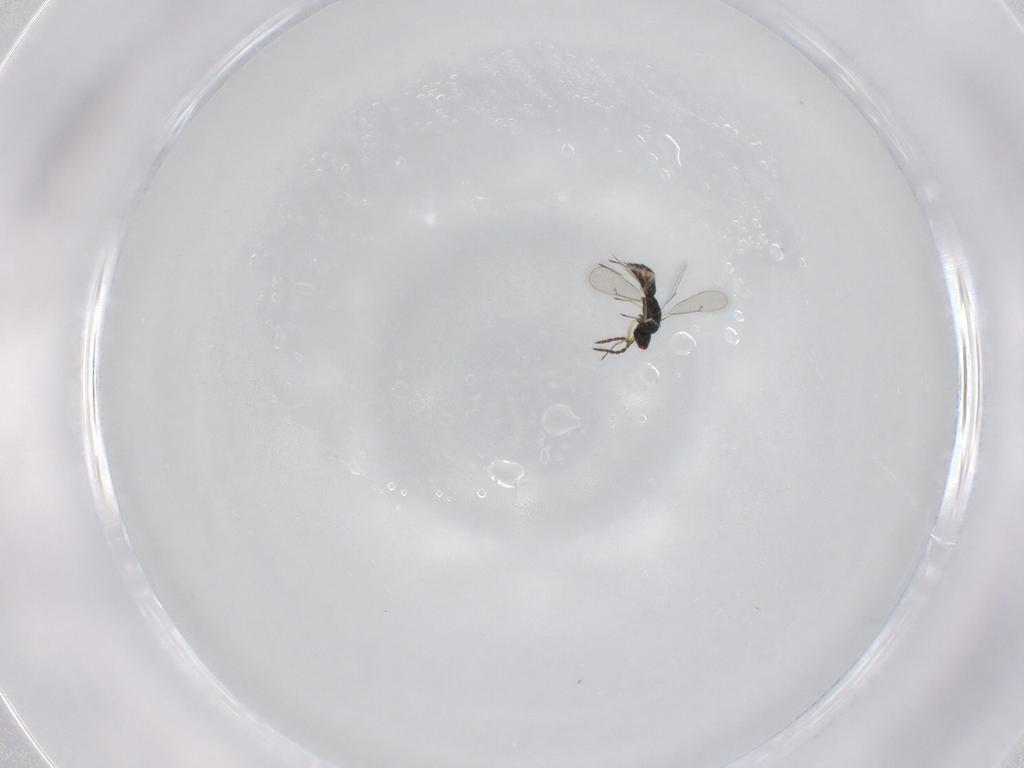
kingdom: Animalia
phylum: Arthropoda
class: Insecta
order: Hymenoptera
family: Eulophidae
